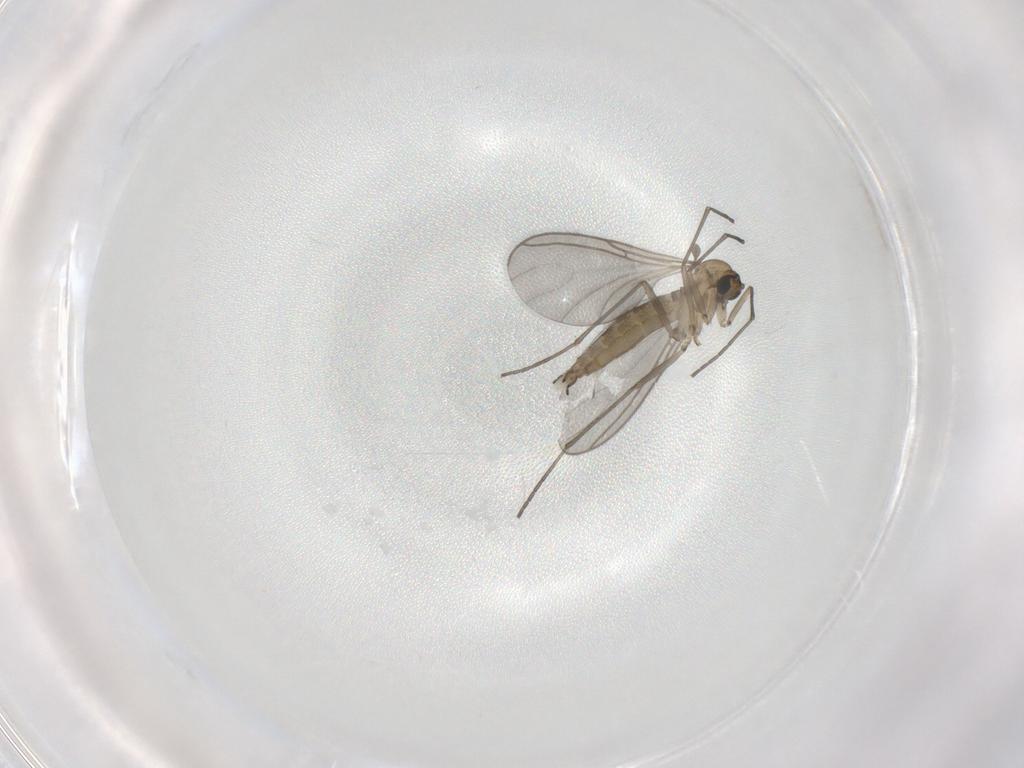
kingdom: Animalia
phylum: Arthropoda
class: Insecta
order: Diptera
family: Sciaridae
